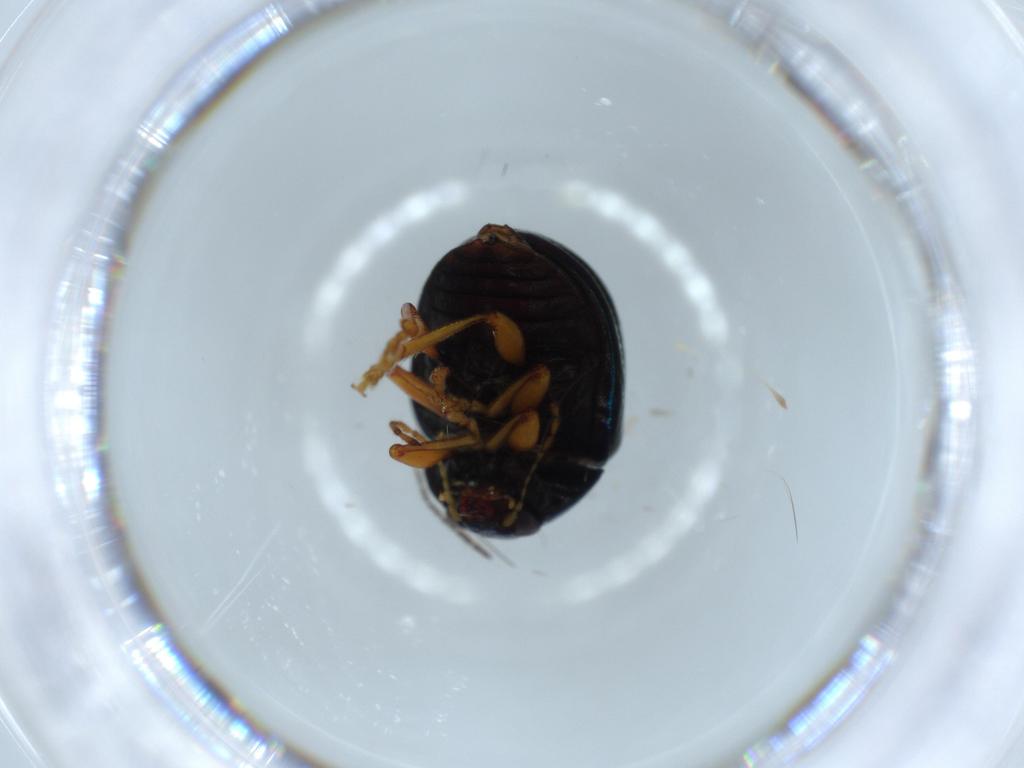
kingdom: Animalia
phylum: Arthropoda
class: Insecta
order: Coleoptera
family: Chrysomelidae
